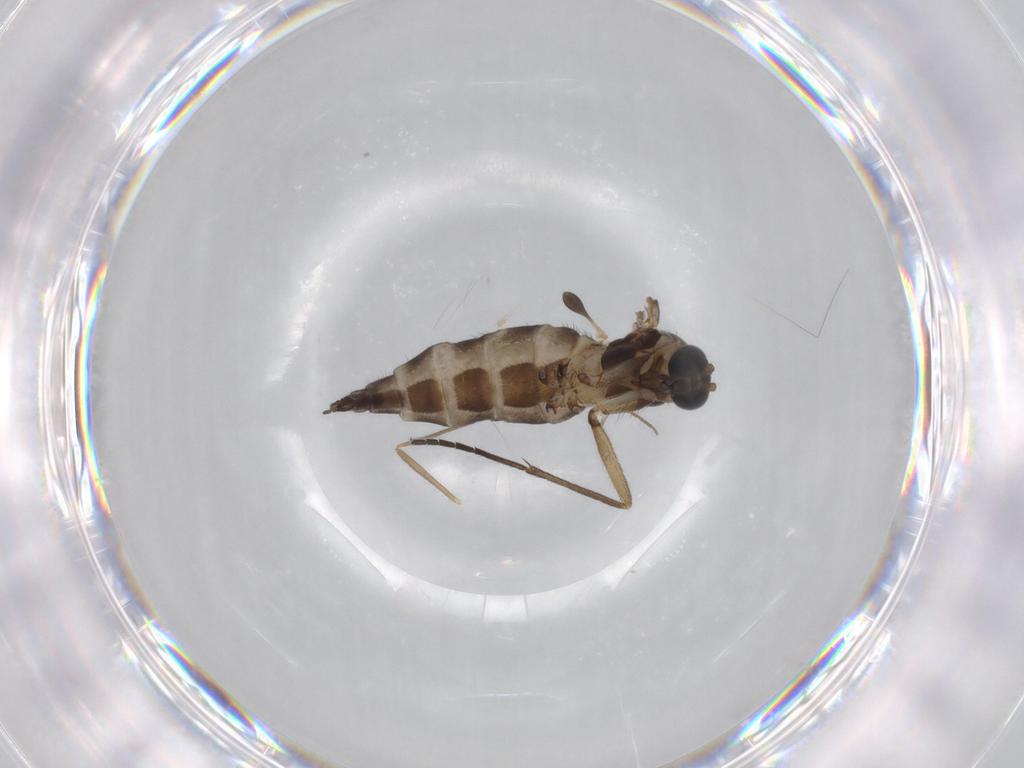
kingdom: Animalia
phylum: Arthropoda
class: Insecta
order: Diptera
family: Sciaridae
